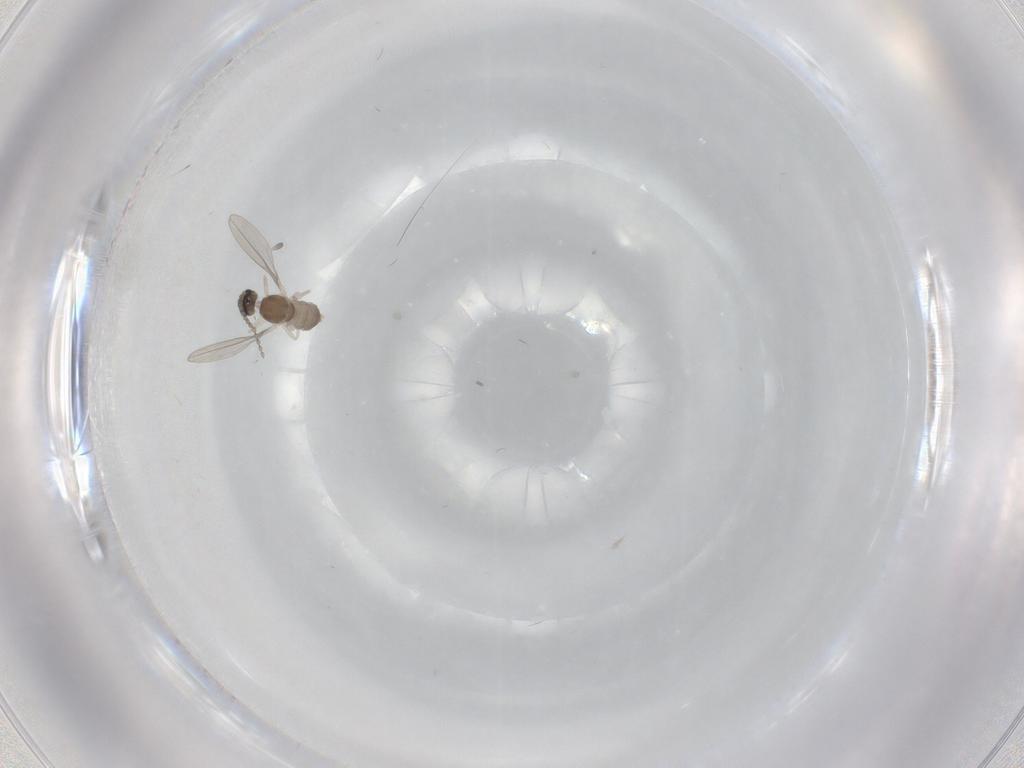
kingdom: Animalia
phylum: Arthropoda
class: Insecta
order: Diptera
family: Cecidomyiidae
